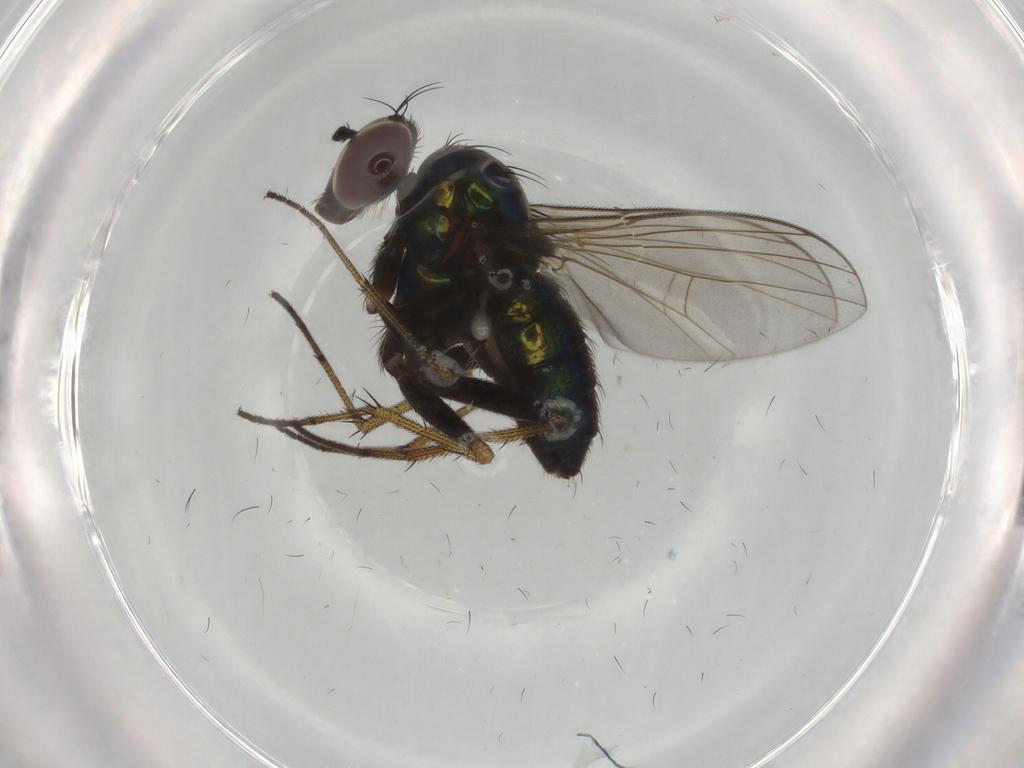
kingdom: Animalia
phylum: Arthropoda
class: Insecta
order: Diptera
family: Dolichopodidae
